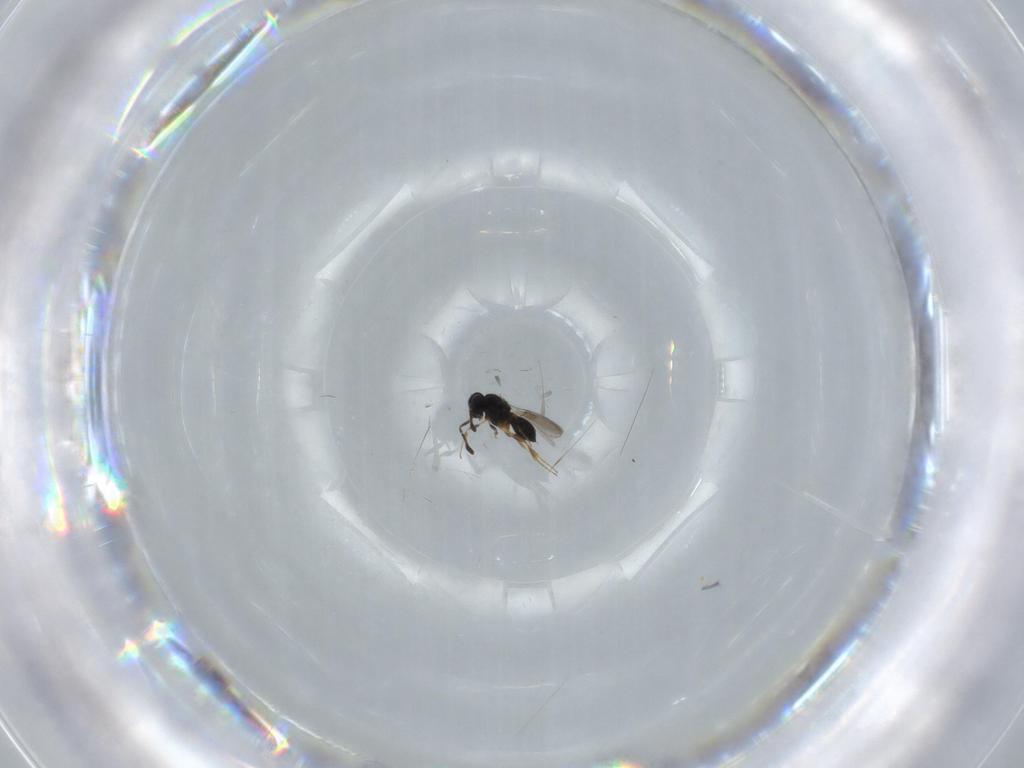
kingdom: Animalia
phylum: Arthropoda
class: Insecta
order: Hymenoptera
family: Scelionidae
